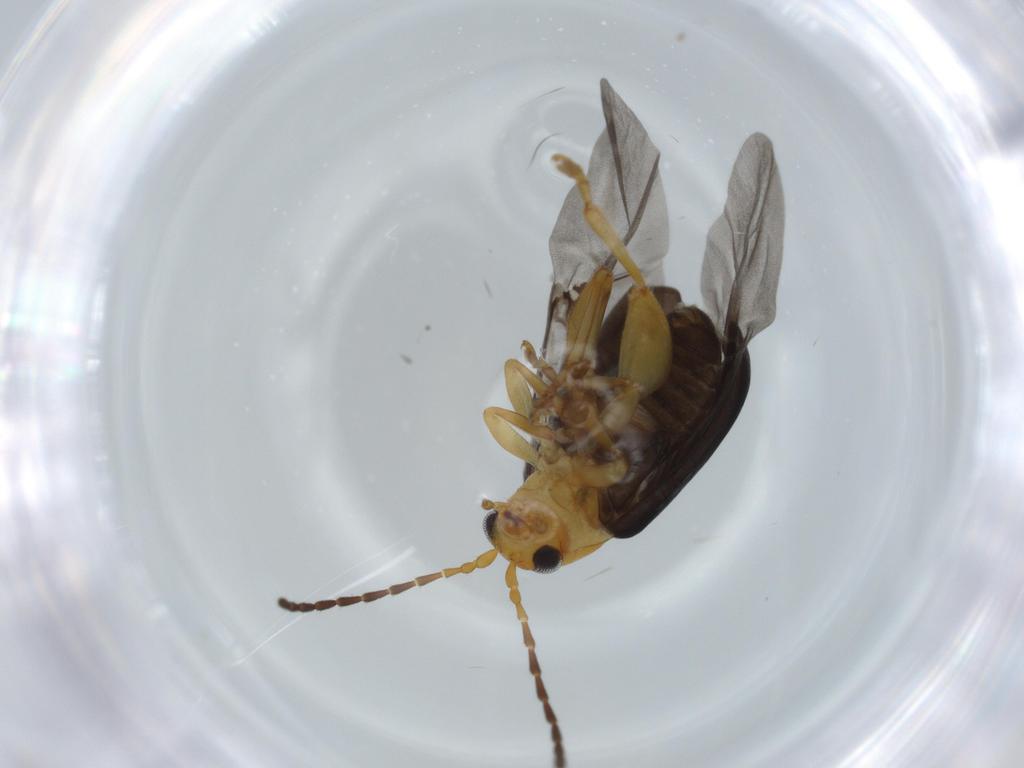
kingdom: Animalia
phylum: Arthropoda
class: Insecta
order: Coleoptera
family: Chrysomelidae
